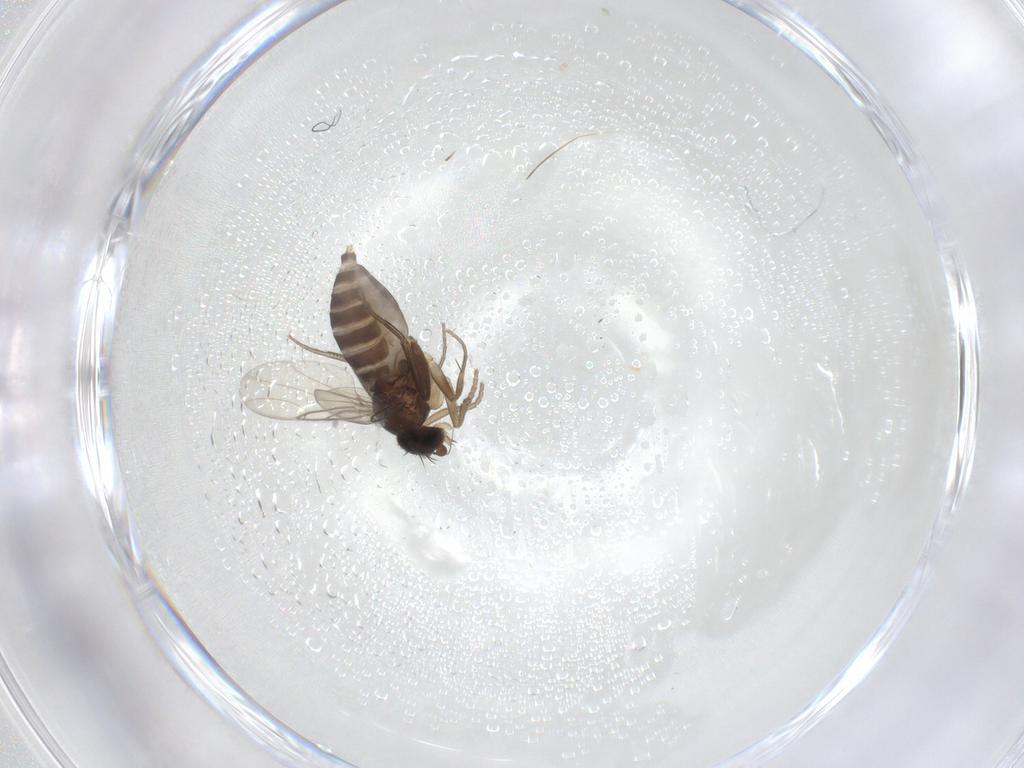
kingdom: Animalia
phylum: Arthropoda
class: Insecta
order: Diptera
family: Phoridae
